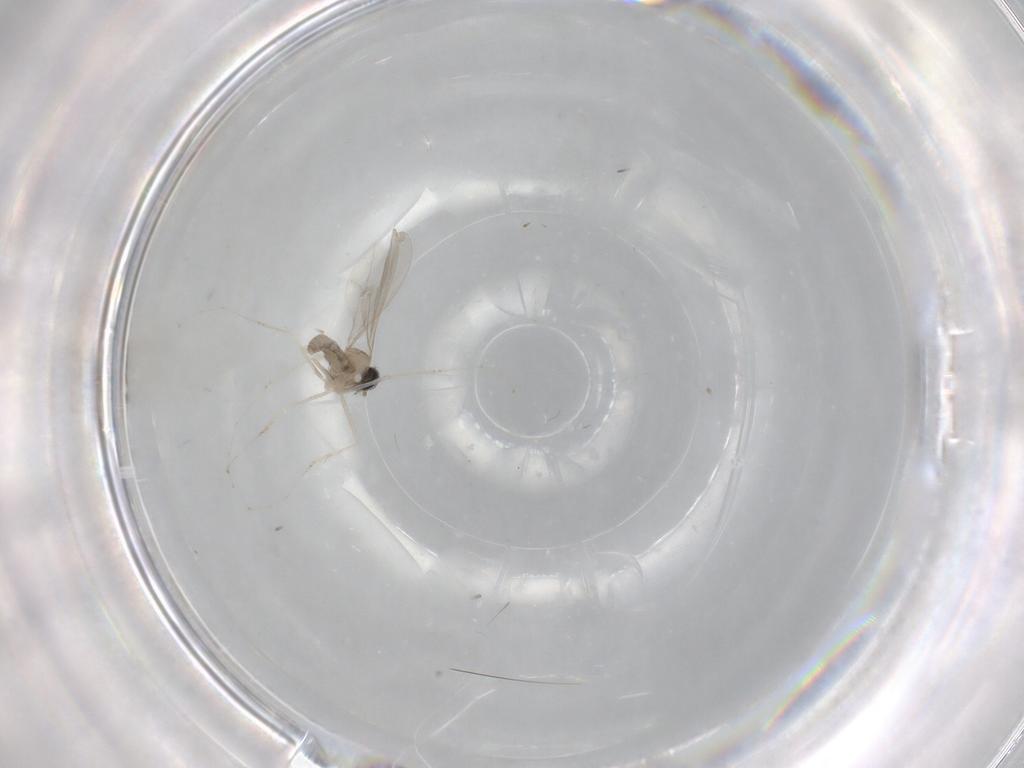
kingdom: Animalia
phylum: Arthropoda
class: Insecta
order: Diptera
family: Cecidomyiidae
